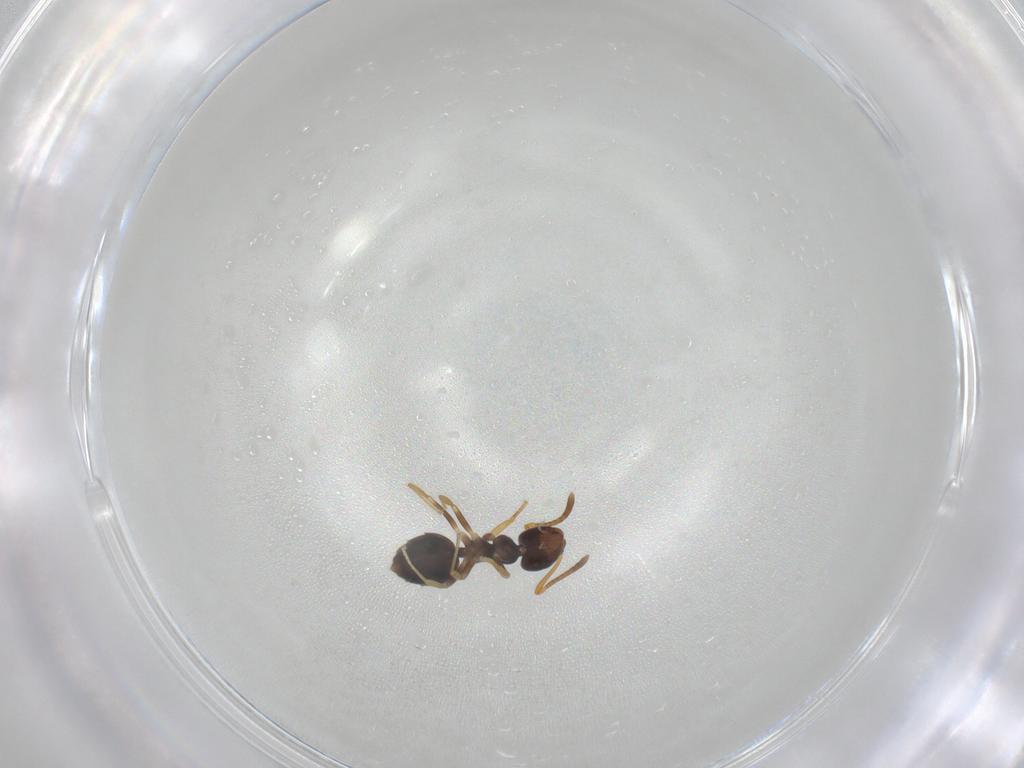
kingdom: Animalia
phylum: Arthropoda
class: Insecta
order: Hymenoptera
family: Formicidae
